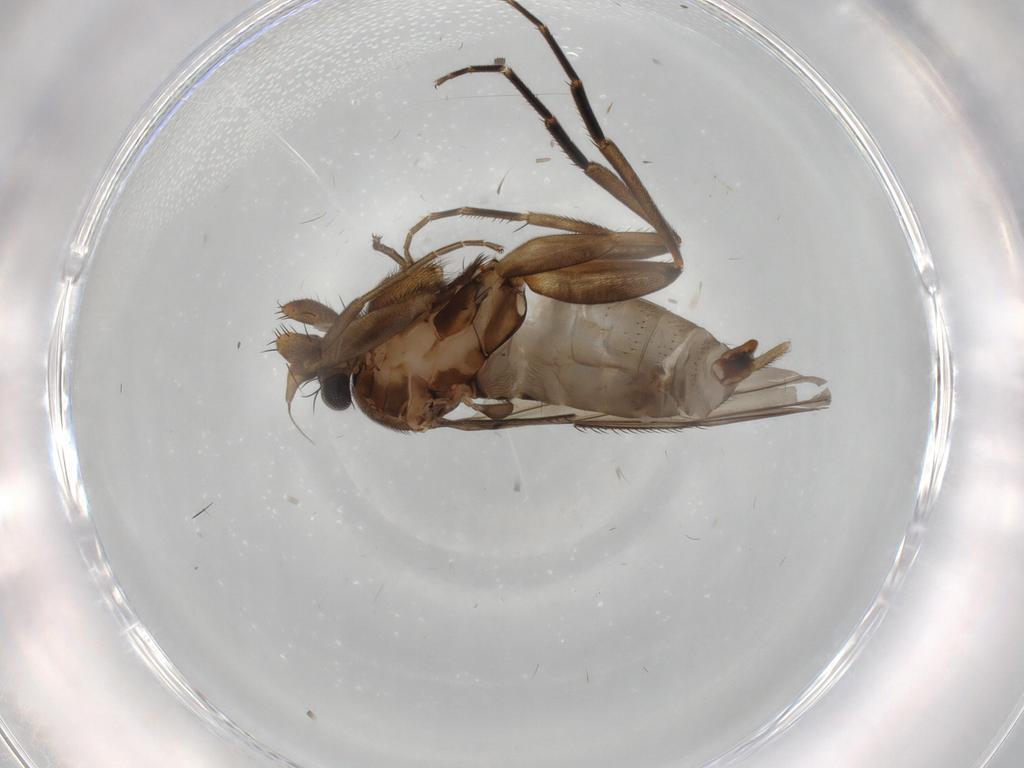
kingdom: Animalia
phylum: Arthropoda
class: Insecta
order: Diptera
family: Phoridae
